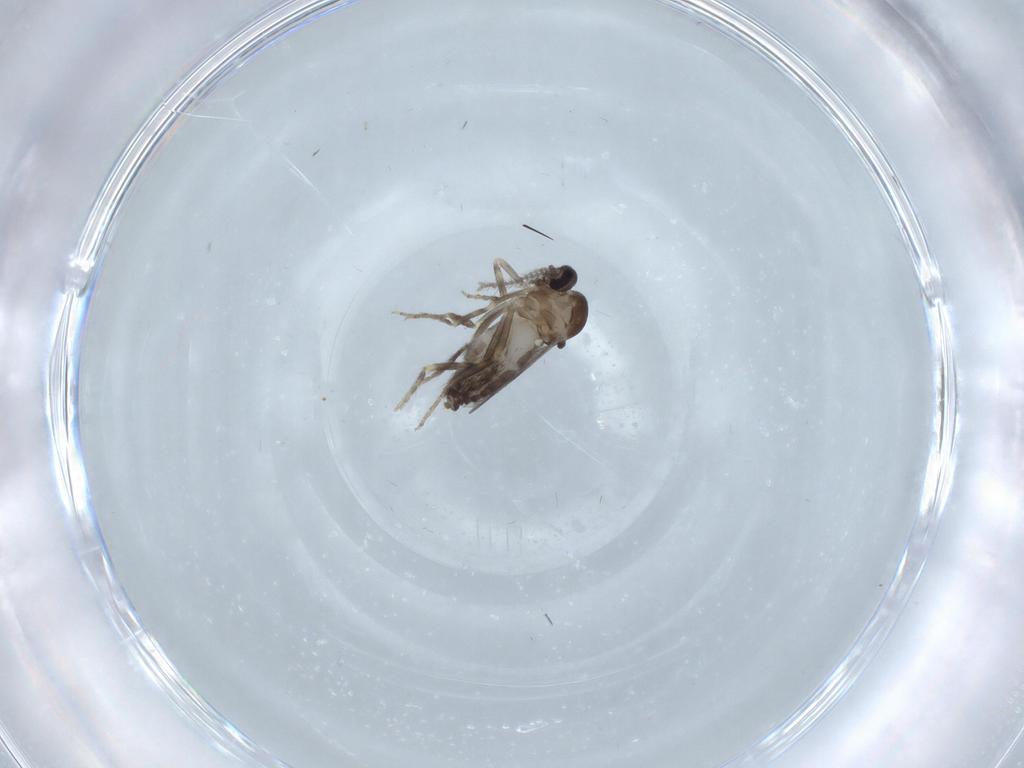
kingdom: Animalia
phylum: Arthropoda
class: Insecta
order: Diptera
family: Ceratopogonidae
